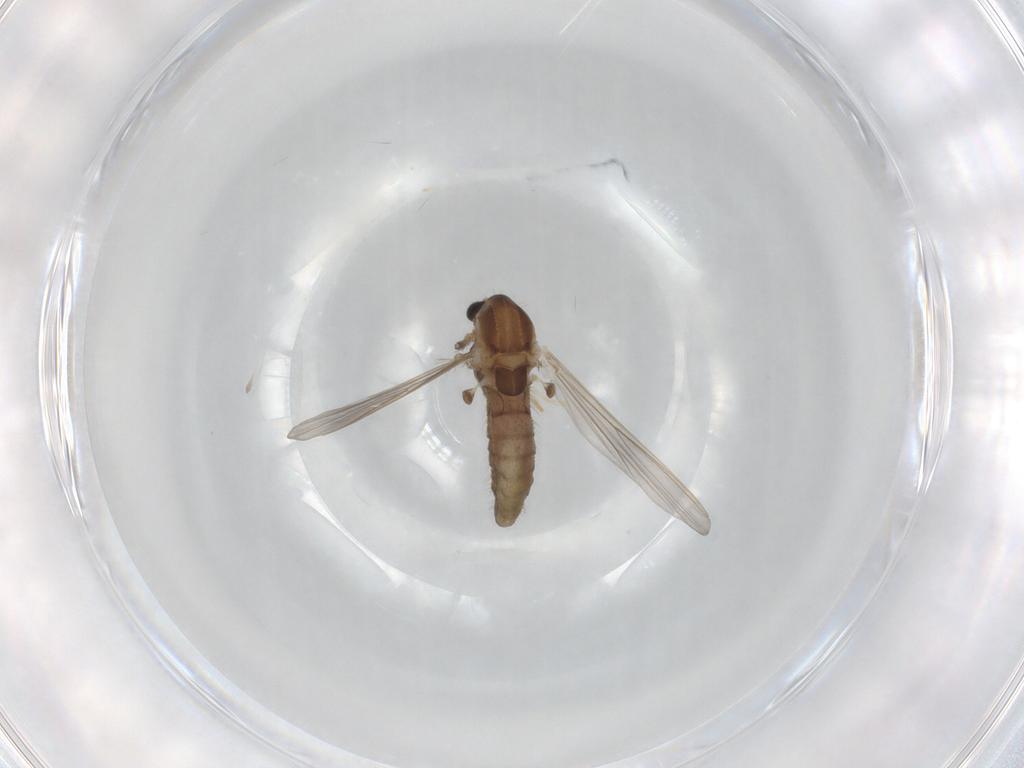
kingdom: Animalia
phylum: Arthropoda
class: Insecta
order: Diptera
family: Chironomidae
